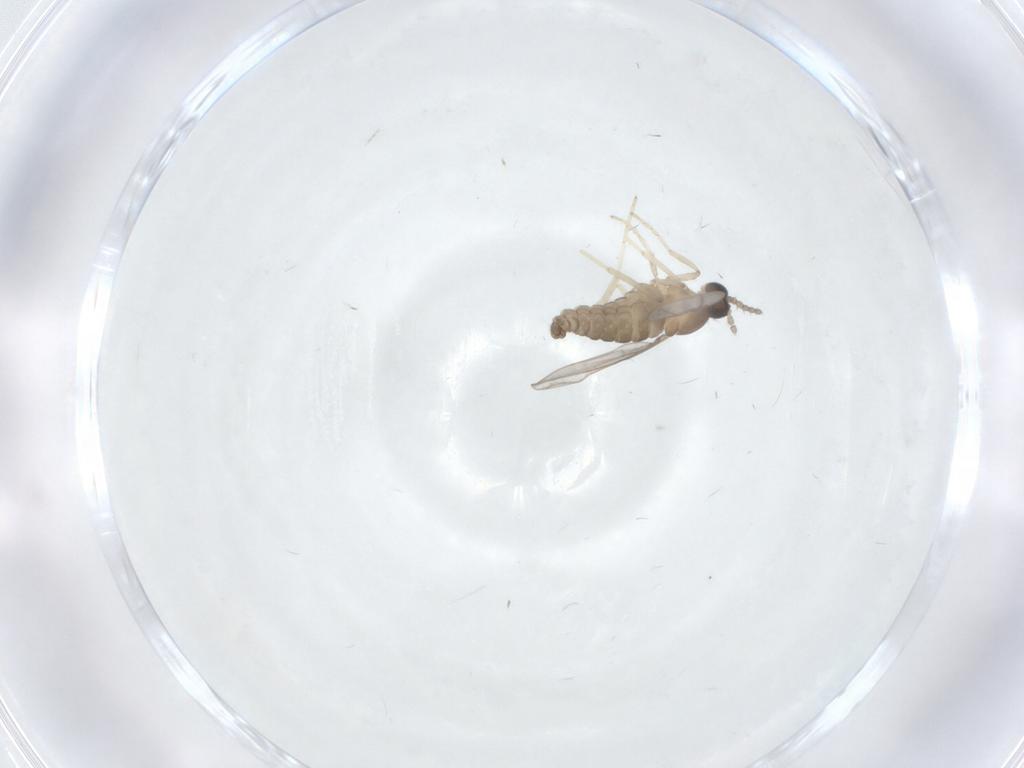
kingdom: Animalia
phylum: Arthropoda
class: Insecta
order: Diptera
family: Cecidomyiidae
